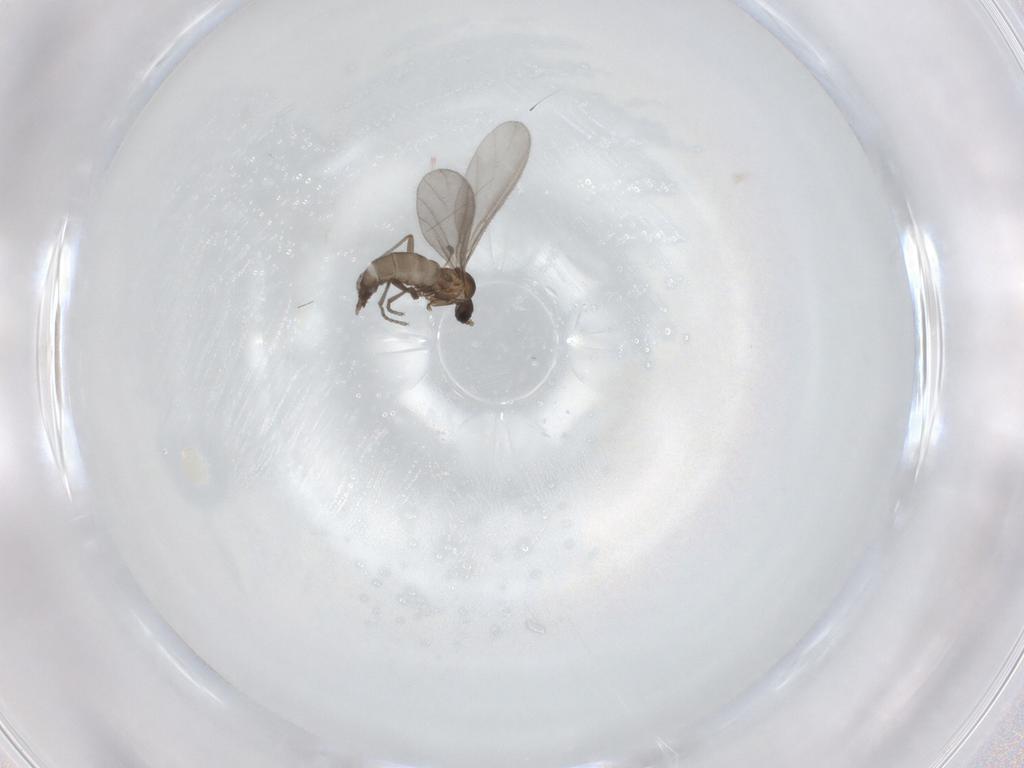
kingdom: Animalia
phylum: Arthropoda
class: Insecta
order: Diptera
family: Sciaridae
